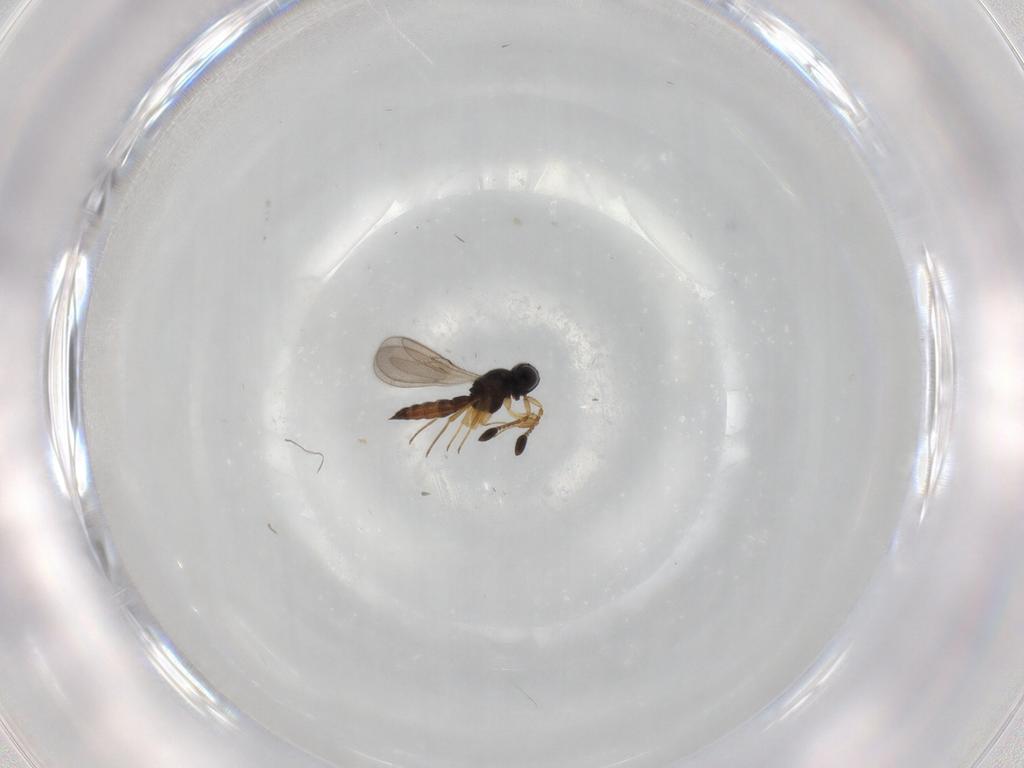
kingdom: Animalia
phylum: Arthropoda
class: Insecta
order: Hymenoptera
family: Scelionidae
